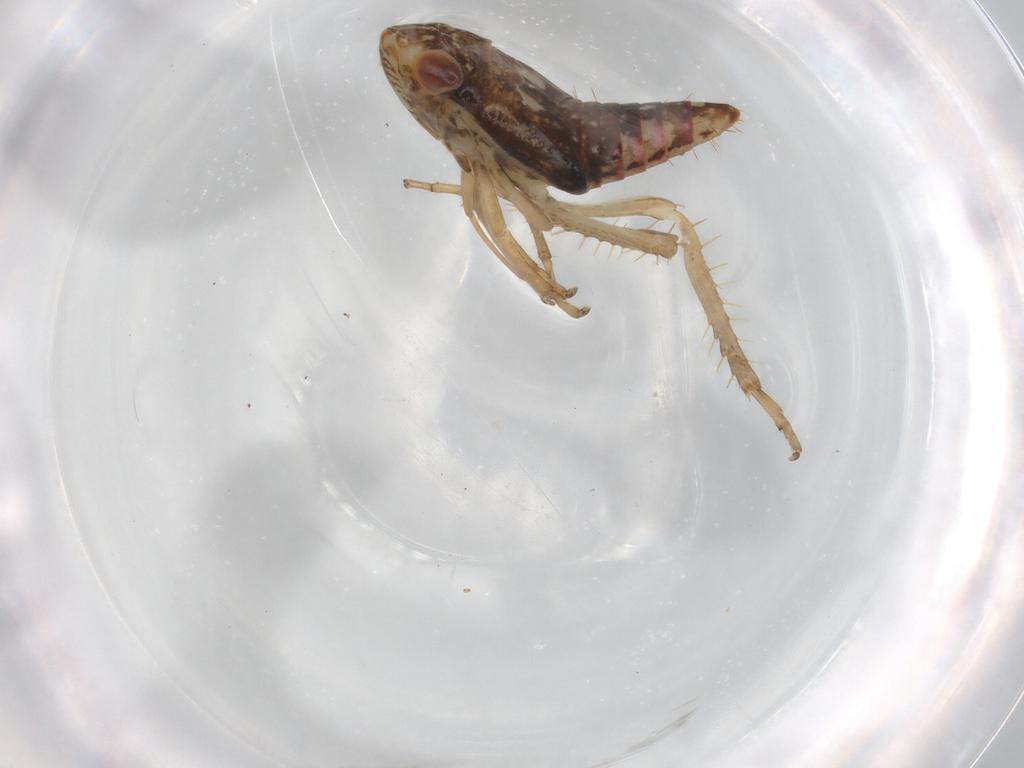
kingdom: Animalia
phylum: Arthropoda
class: Insecta
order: Hemiptera
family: Cicadellidae
